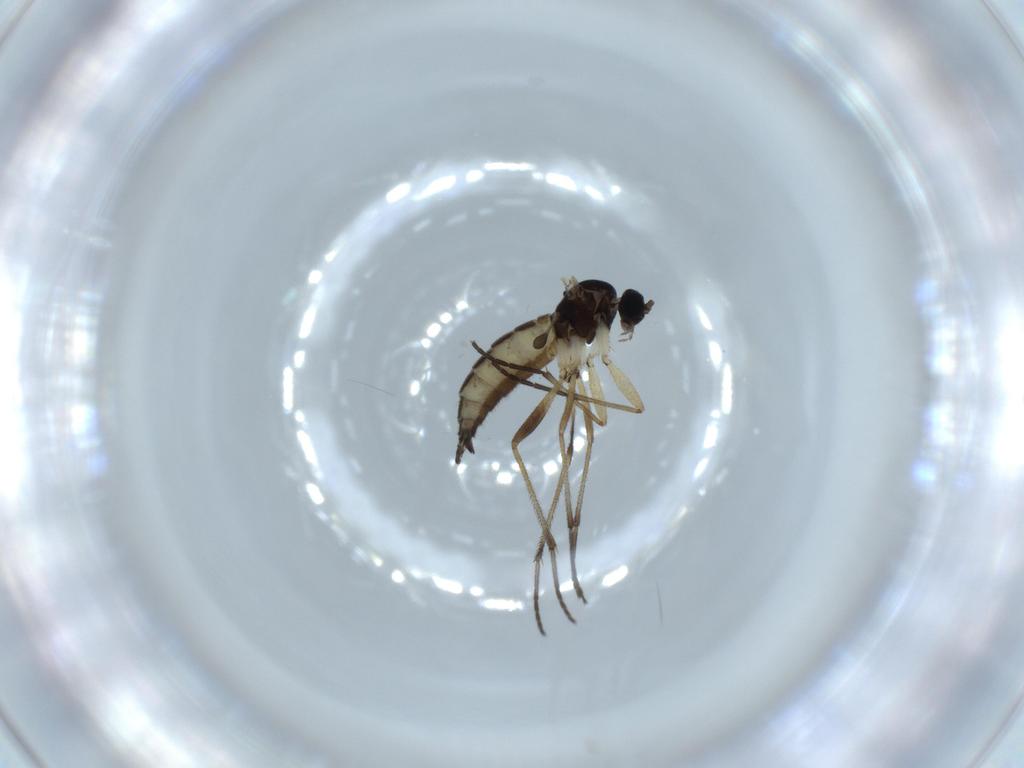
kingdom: Animalia
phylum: Arthropoda
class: Insecta
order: Diptera
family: Sciaridae
